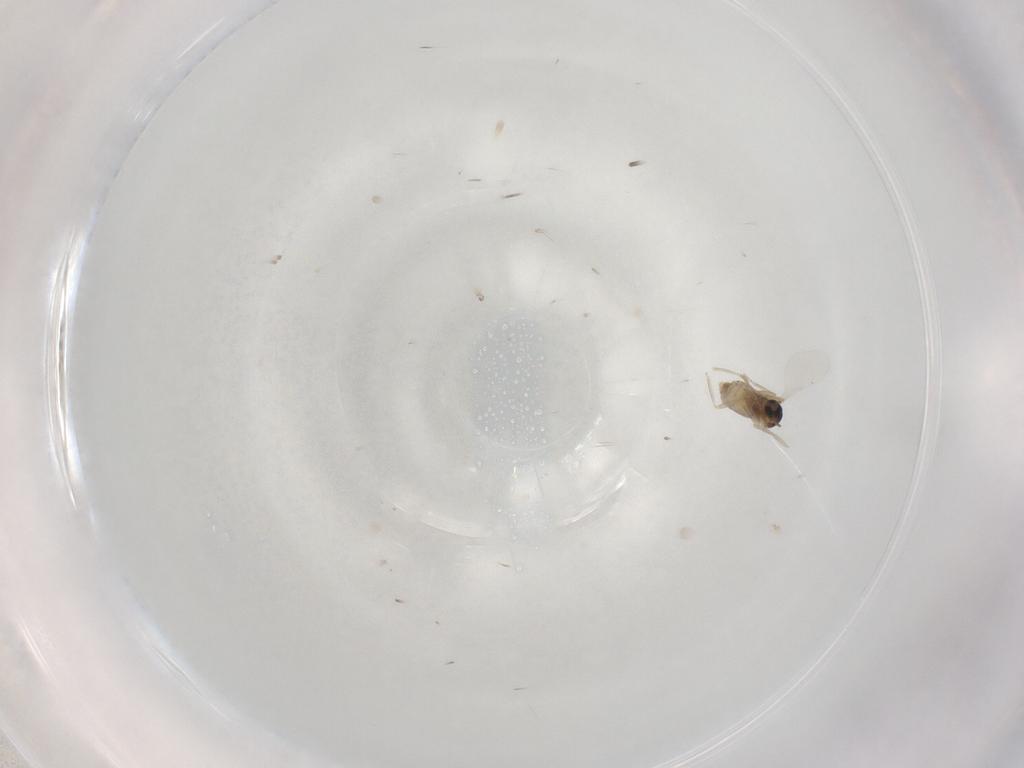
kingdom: Animalia
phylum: Arthropoda
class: Insecta
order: Diptera
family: Cecidomyiidae
